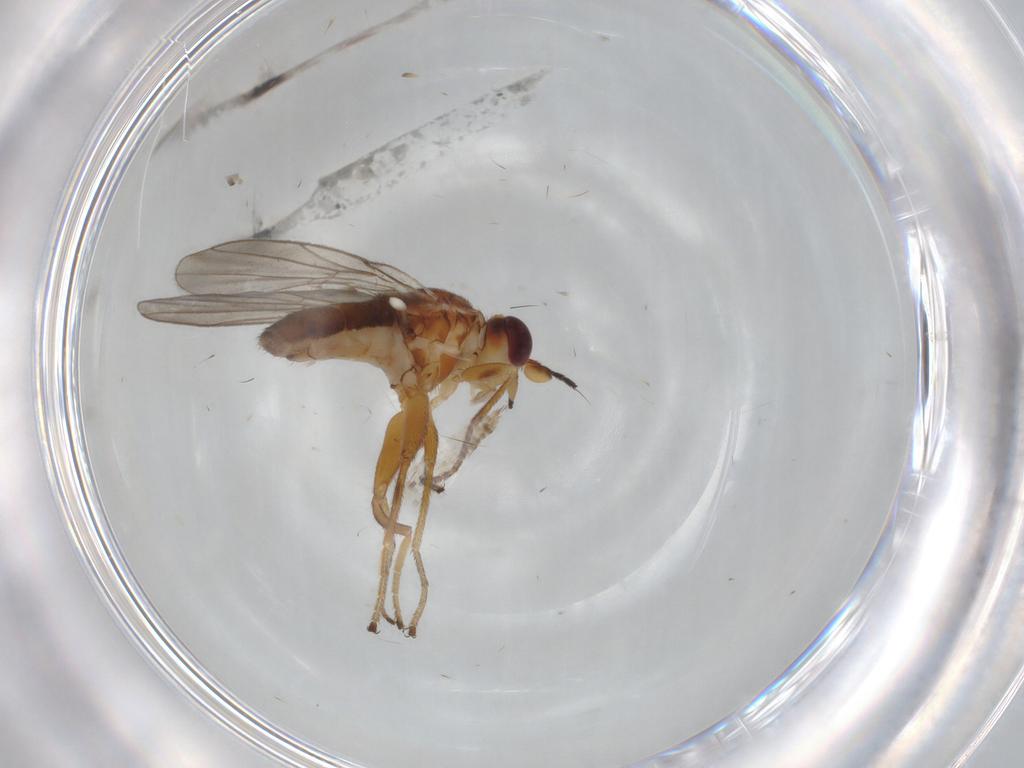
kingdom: Animalia
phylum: Arthropoda
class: Insecta
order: Diptera
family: Chloropidae
